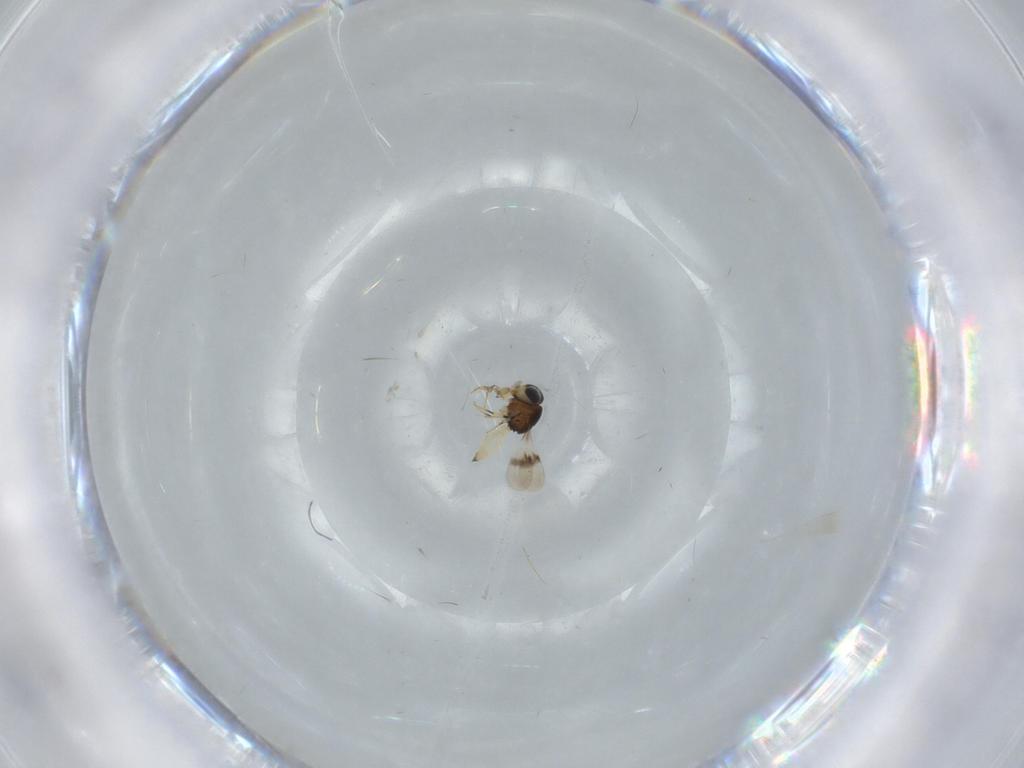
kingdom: Animalia
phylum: Arthropoda
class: Insecta
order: Hymenoptera
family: Scelionidae
